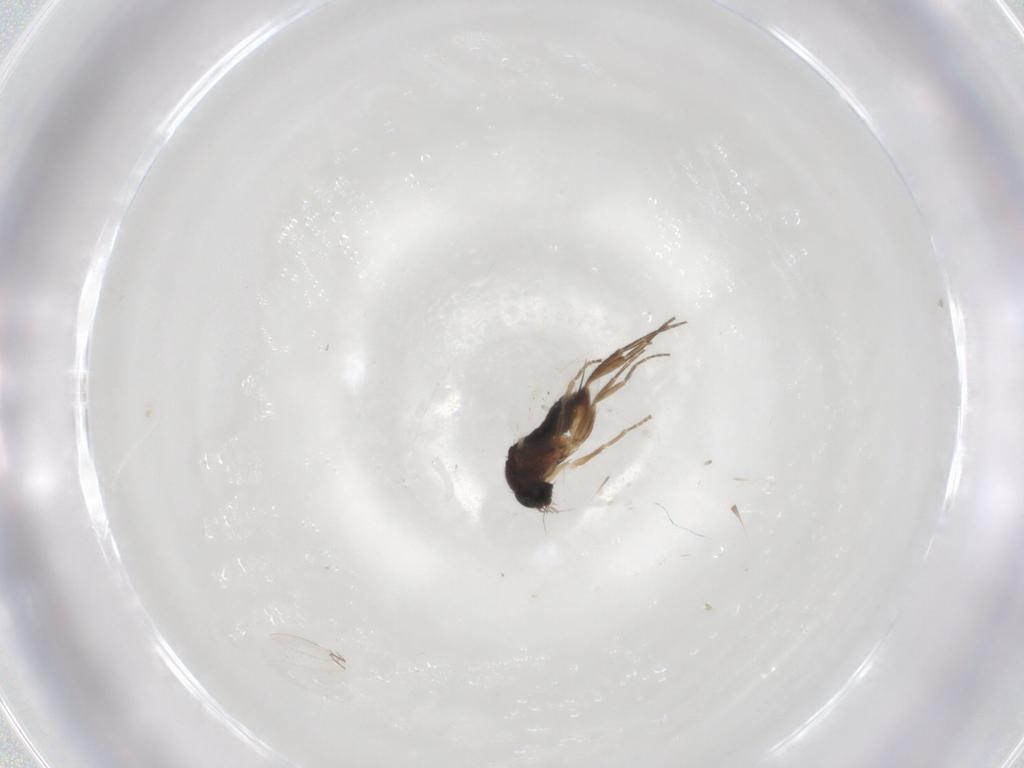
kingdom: Animalia
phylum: Arthropoda
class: Insecta
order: Diptera
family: Phoridae
